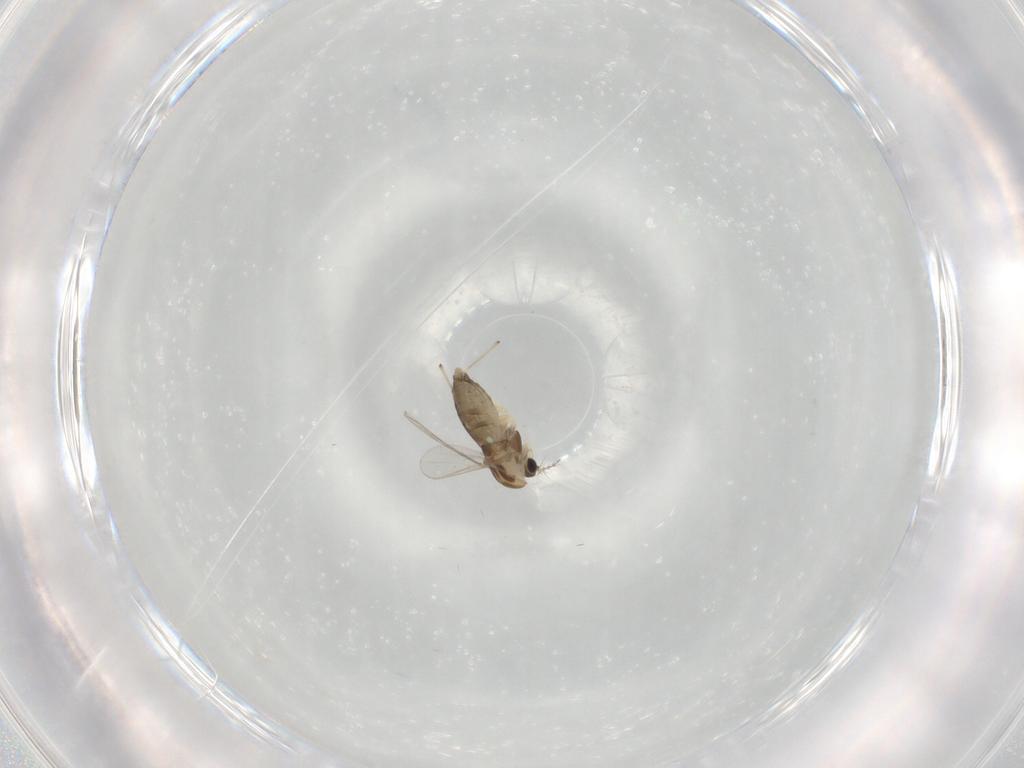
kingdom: Animalia
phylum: Arthropoda
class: Insecta
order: Diptera
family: Chironomidae
